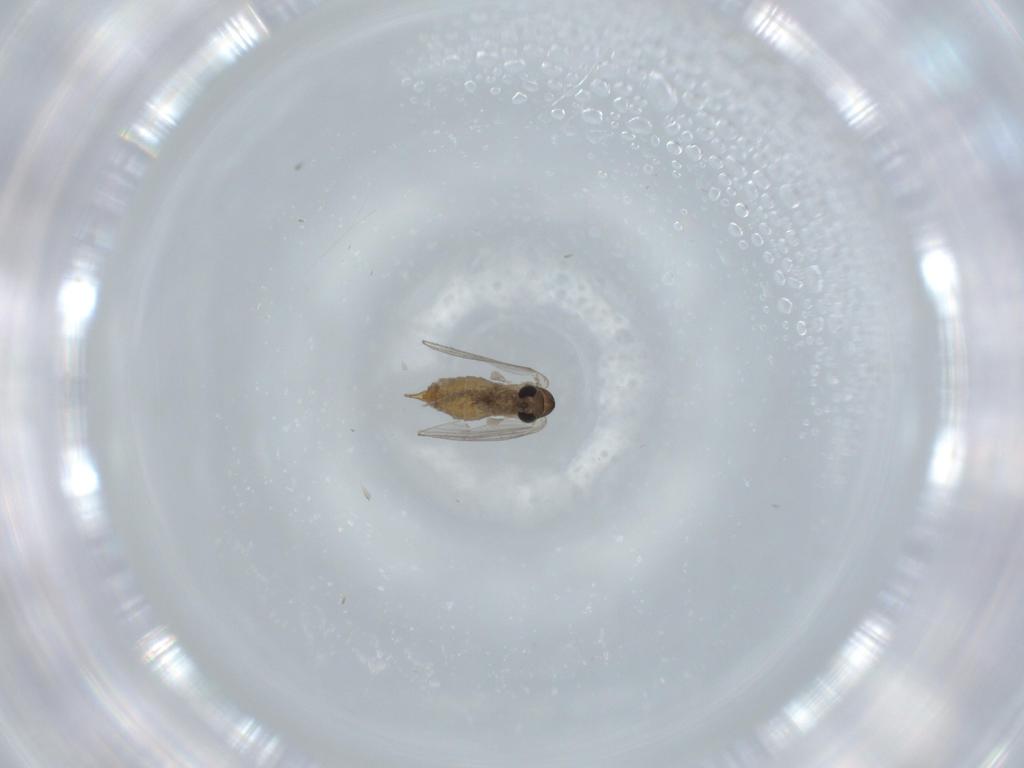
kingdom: Animalia
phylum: Arthropoda
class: Insecta
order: Diptera
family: Psychodidae
